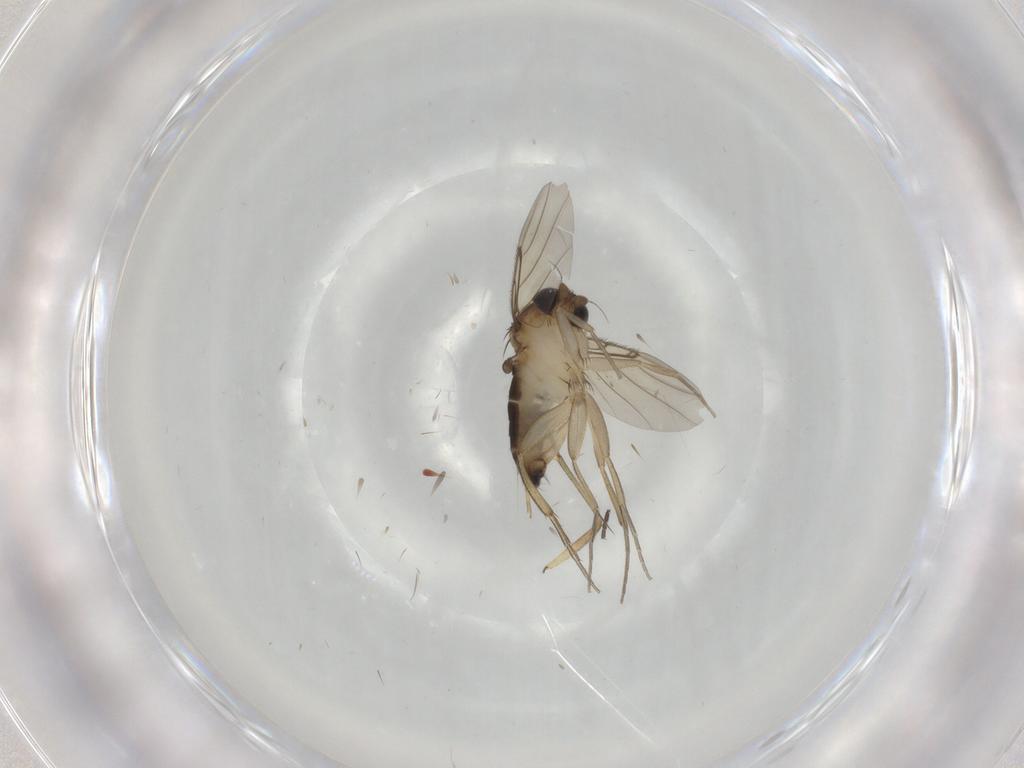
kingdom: Animalia
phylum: Arthropoda
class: Insecta
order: Diptera
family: Phoridae
